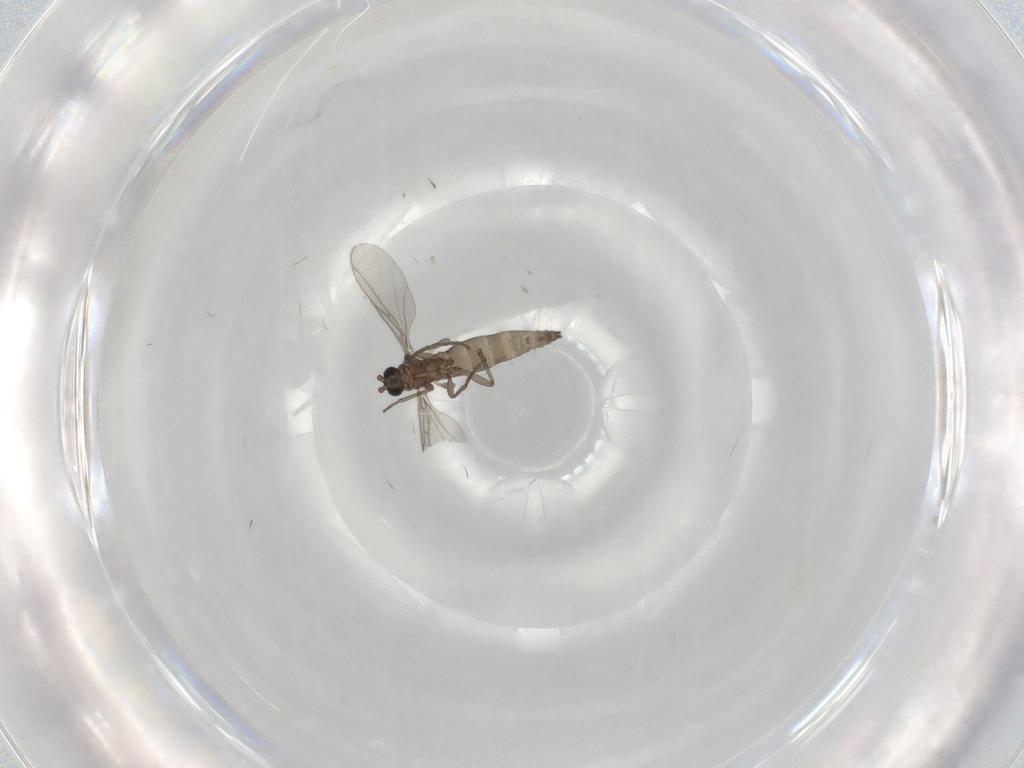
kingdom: Animalia
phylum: Arthropoda
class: Insecta
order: Diptera
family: Sciaridae
